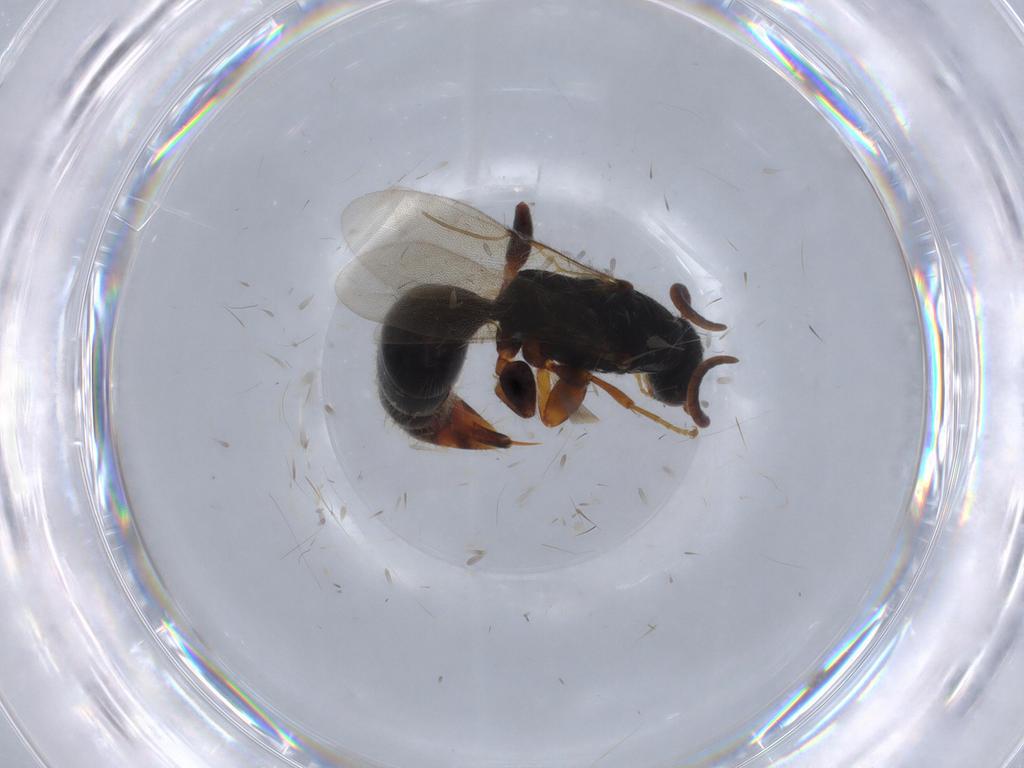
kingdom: Animalia
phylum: Arthropoda
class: Insecta
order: Hymenoptera
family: Bethylidae
